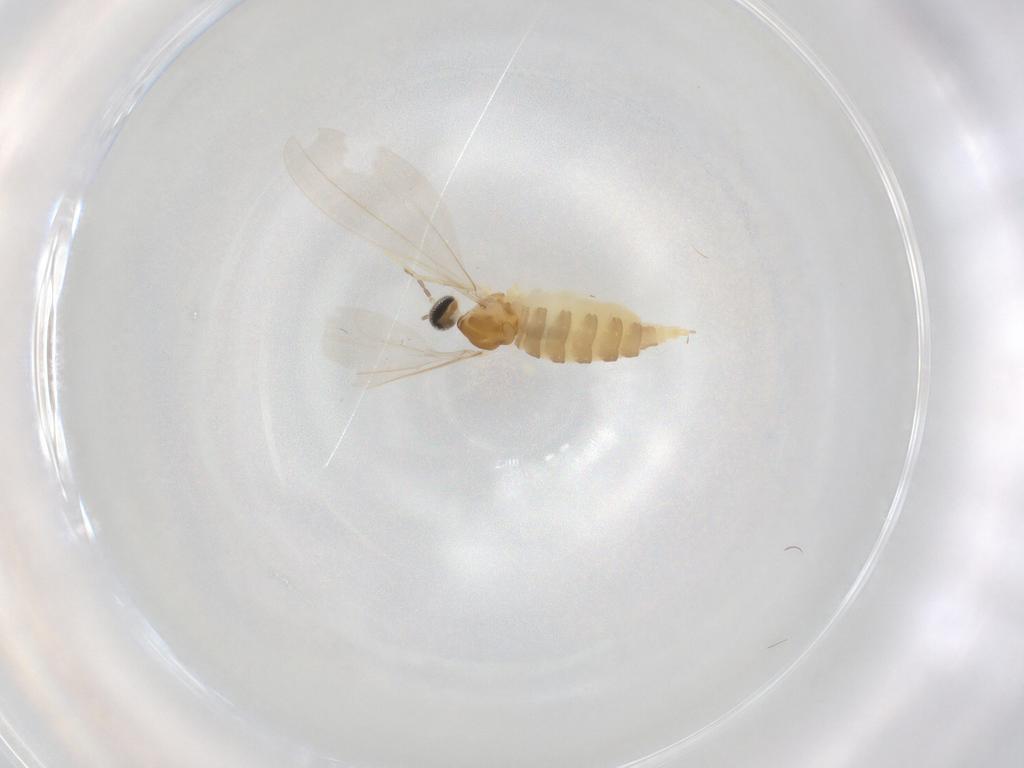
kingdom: Animalia
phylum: Arthropoda
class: Insecta
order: Diptera
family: Cecidomyiidae
